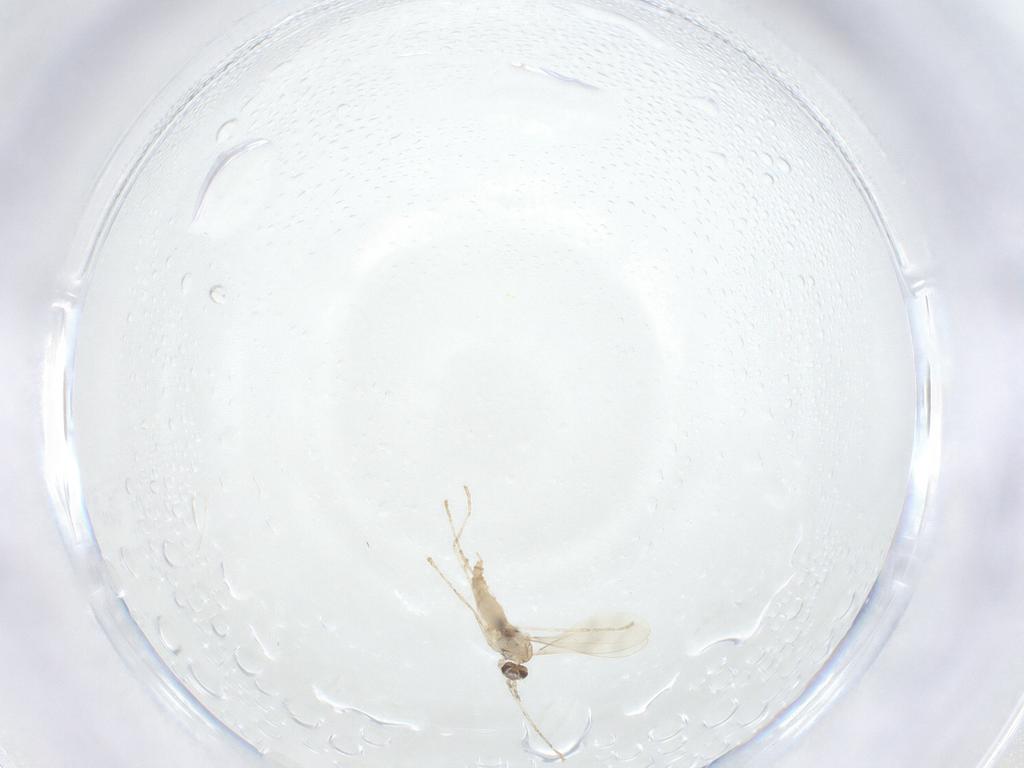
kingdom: Animalia
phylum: Arthropoda
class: Insecta
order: Diptera
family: Chironomidae
